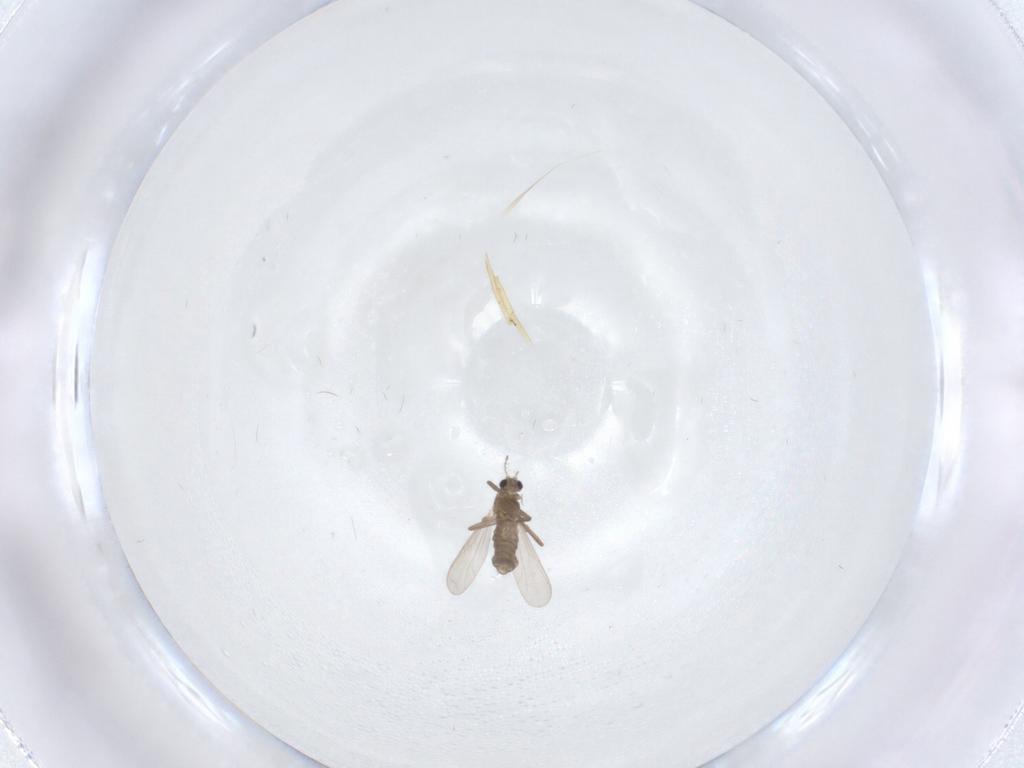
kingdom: Animalia
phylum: Arthropoda
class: Insecta
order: Diptera
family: Chironomidae
